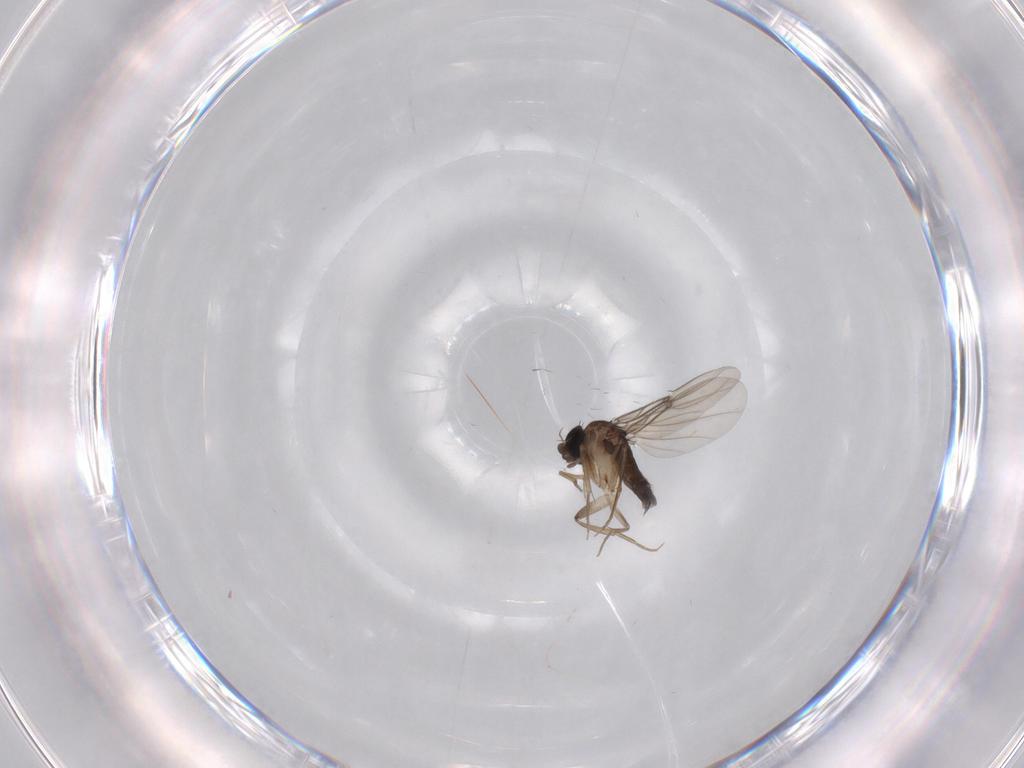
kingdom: Animalia
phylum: Arthropoda
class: Insecta
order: Diptera
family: Phoridae
